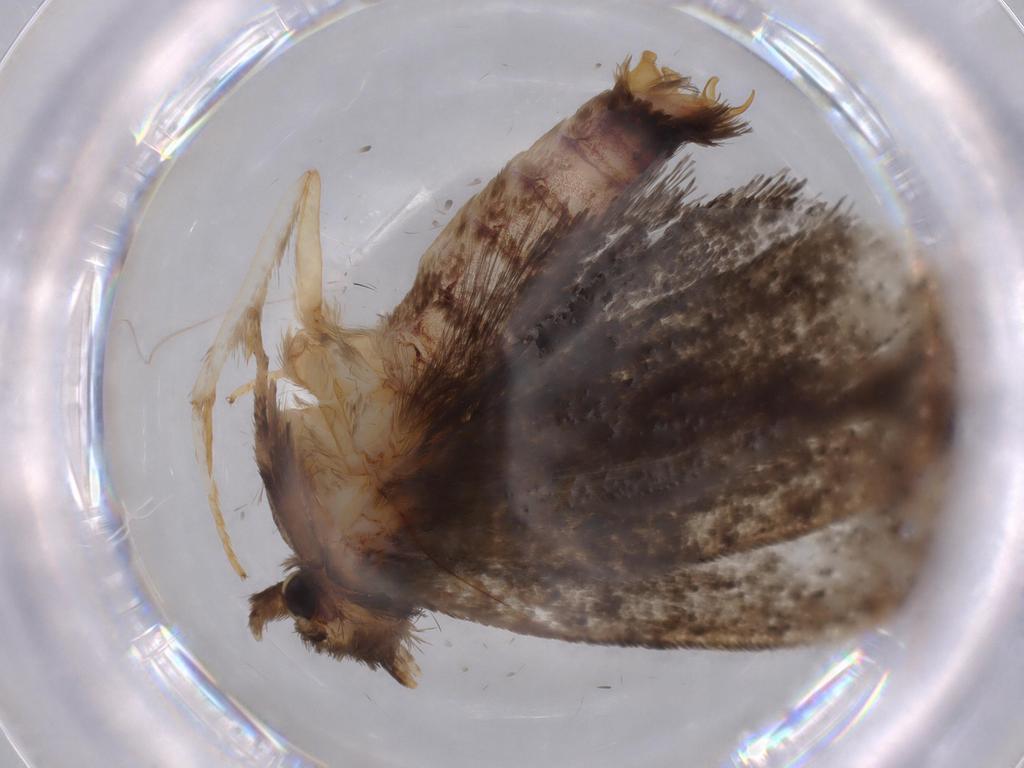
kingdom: Animalia
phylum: Arthropoda
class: Insecta
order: Lepidoptera
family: Tineidae
